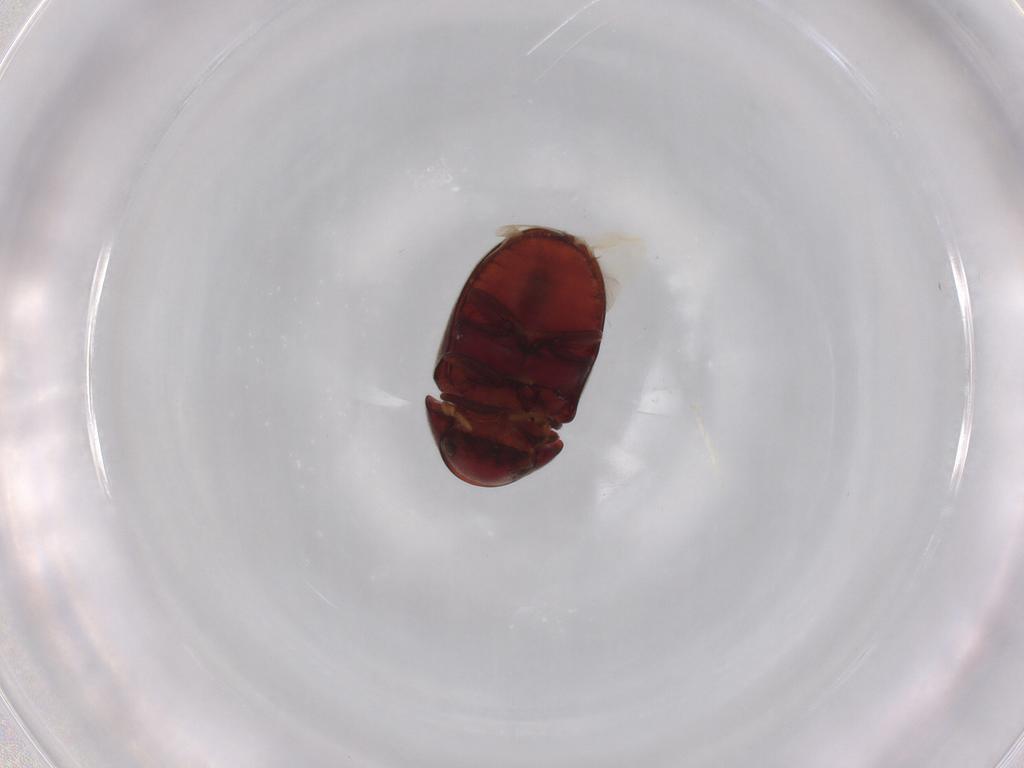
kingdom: Animalia
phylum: Arthropoda
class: Insecta
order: Coleoptera
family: Ptinidae
